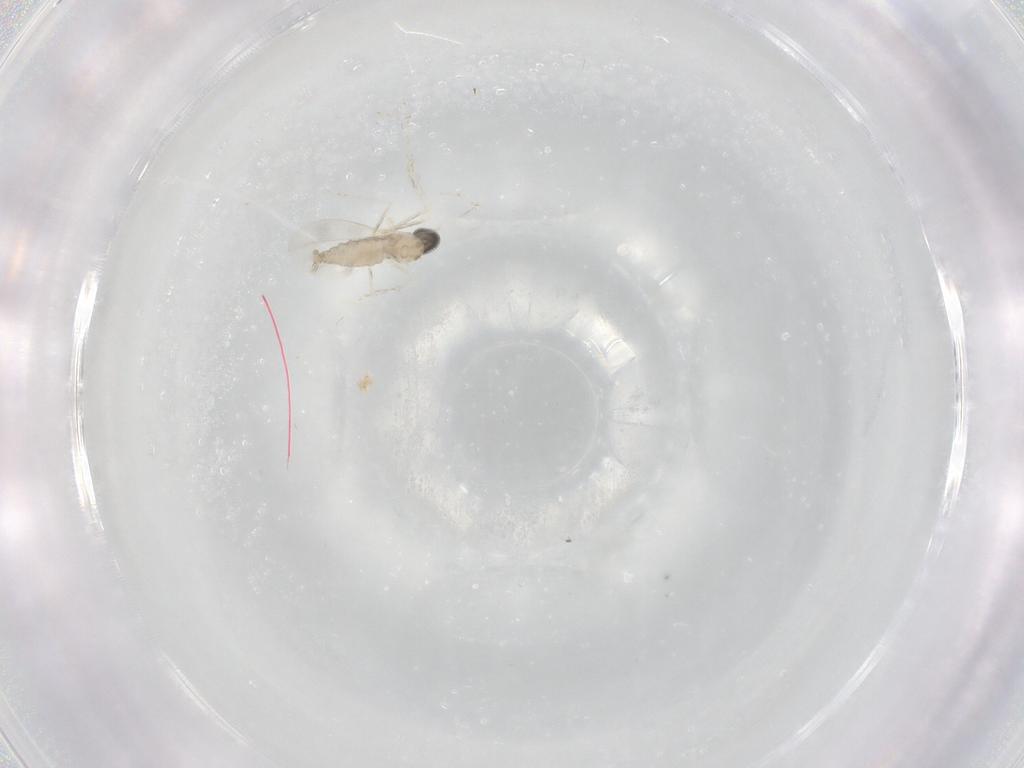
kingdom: Animalia
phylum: Arthropoda
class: Insecta
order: Diptera
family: Cecidomyiidae
